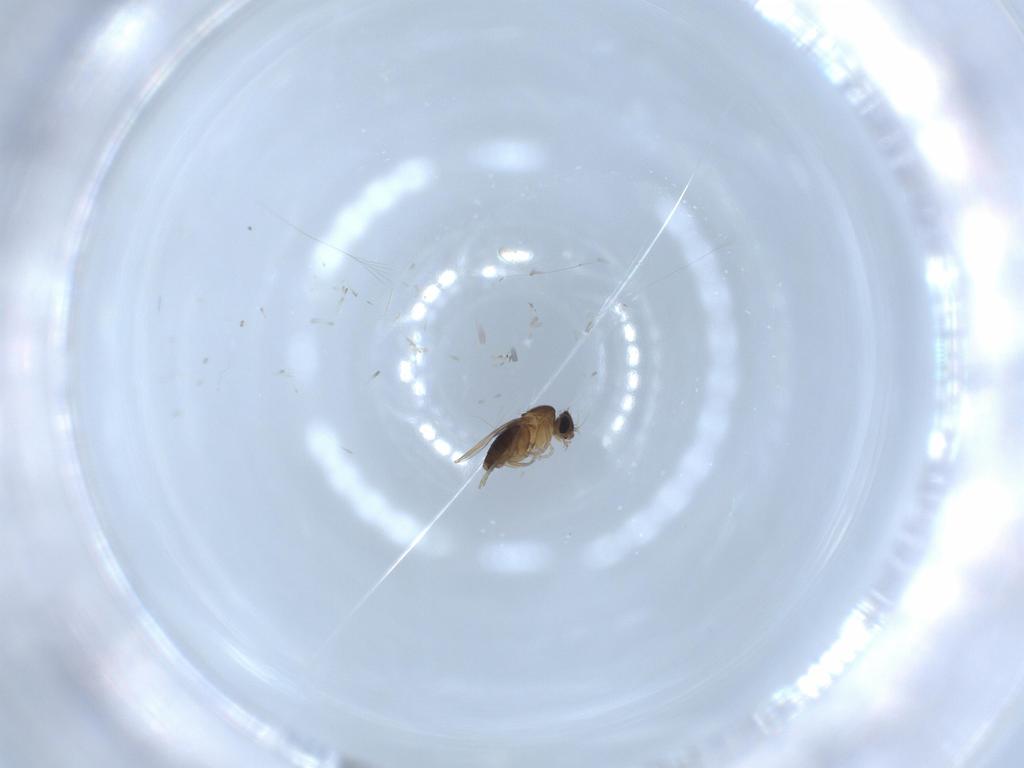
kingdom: Animalia
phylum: Arthropoda
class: Insecta
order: Diptera
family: Phoridae
